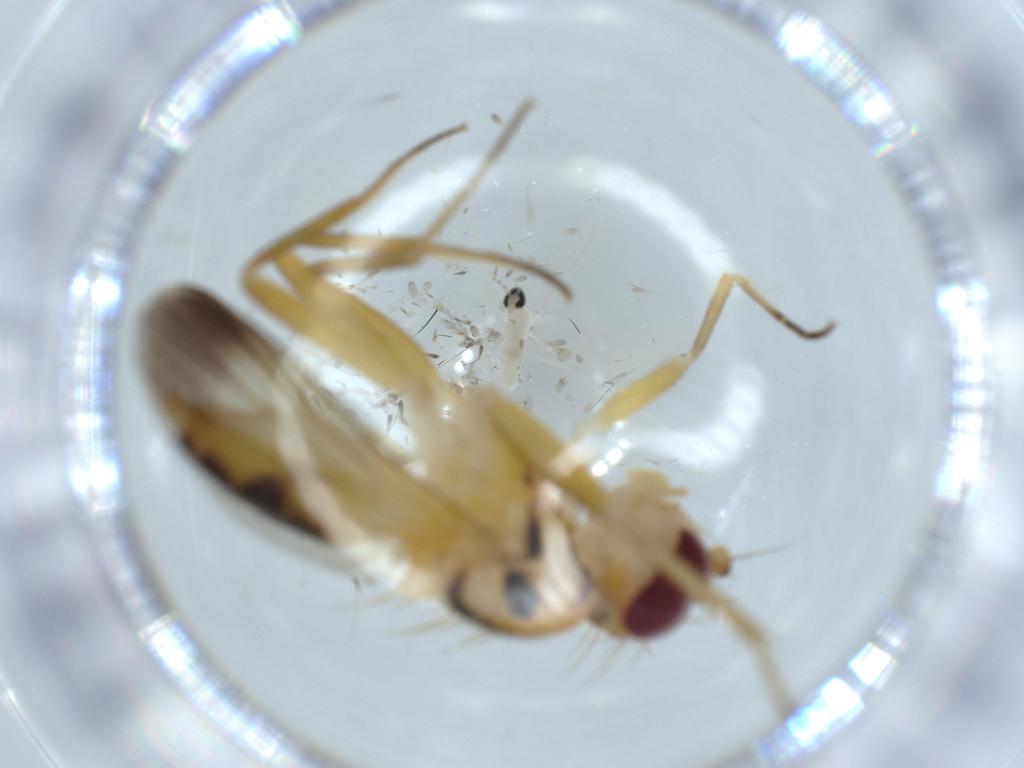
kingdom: Animalia
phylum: Arthropoda
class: Insecta
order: Diptera
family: Clusiidae
